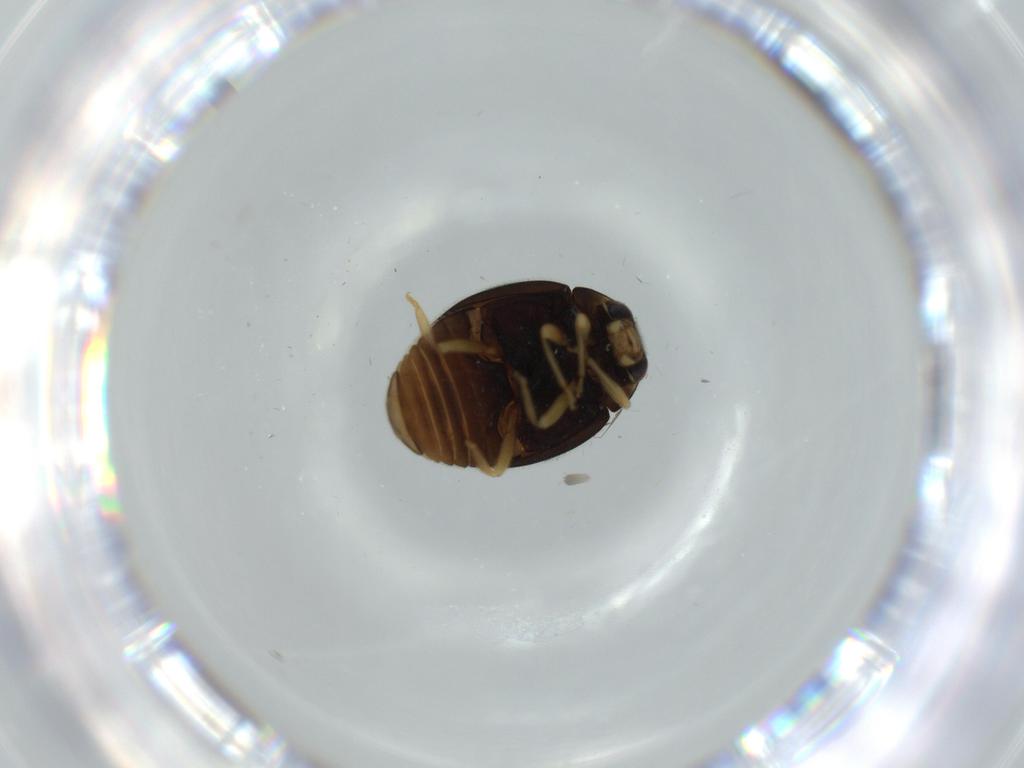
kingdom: Animalia
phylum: Arthropoda
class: Insecta
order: Coleoptera
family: Coccinellidae
